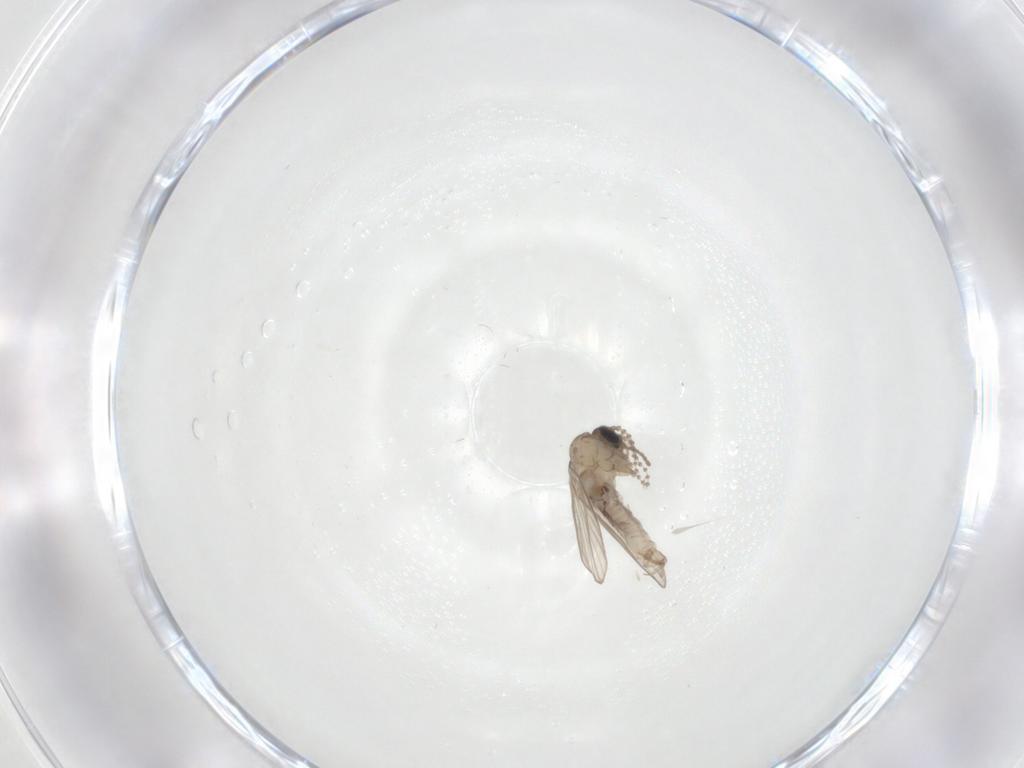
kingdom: Animalia
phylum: Arthropoda
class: Insecta
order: Diptera
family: Psychodidae
